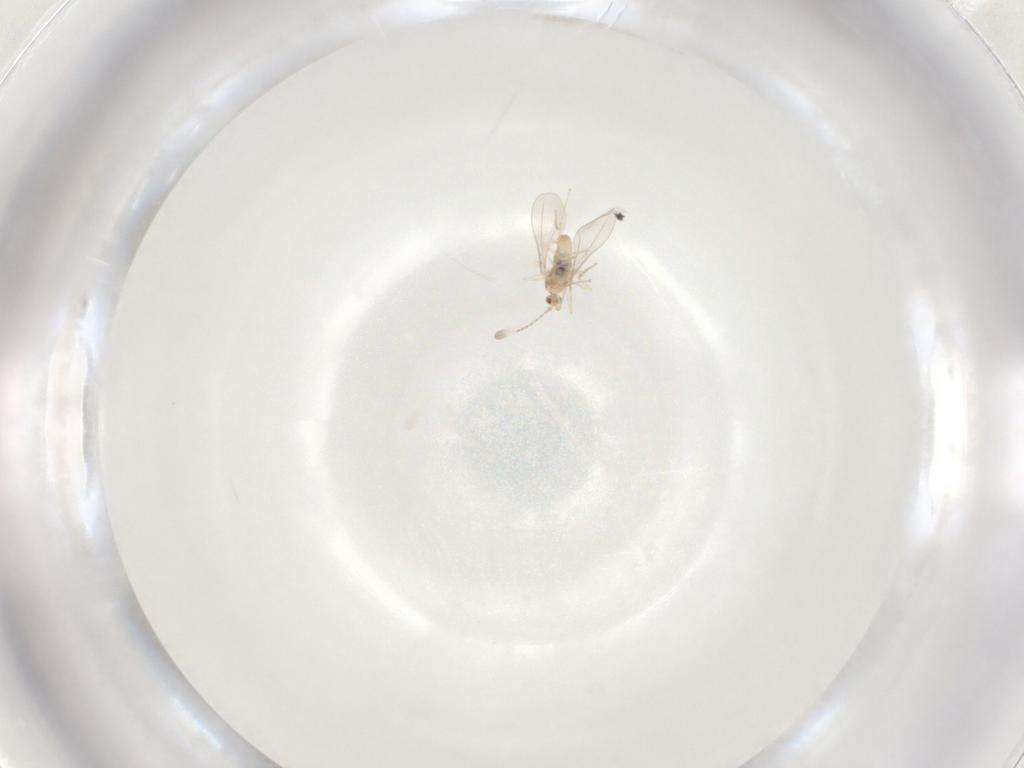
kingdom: Animalia
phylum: Arthropoda
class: Insecta
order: Diptera
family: Cecidomyiidae
